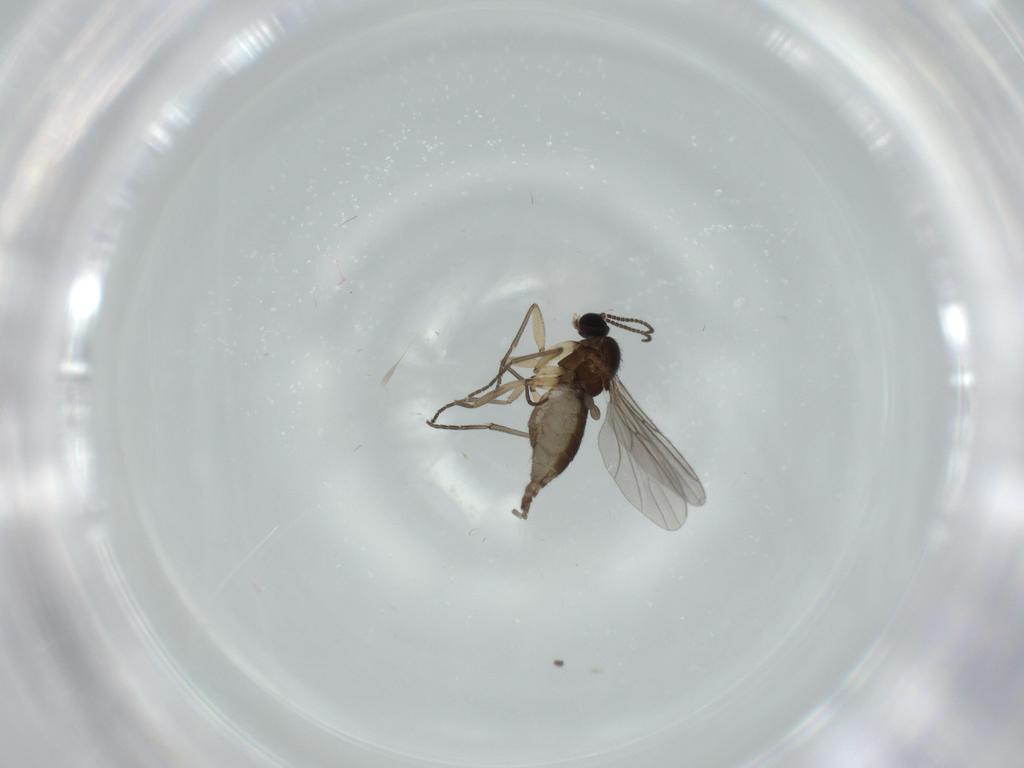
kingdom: Animalia
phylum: Arthropoda
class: Insecta
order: Diptera
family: Sciaridae
